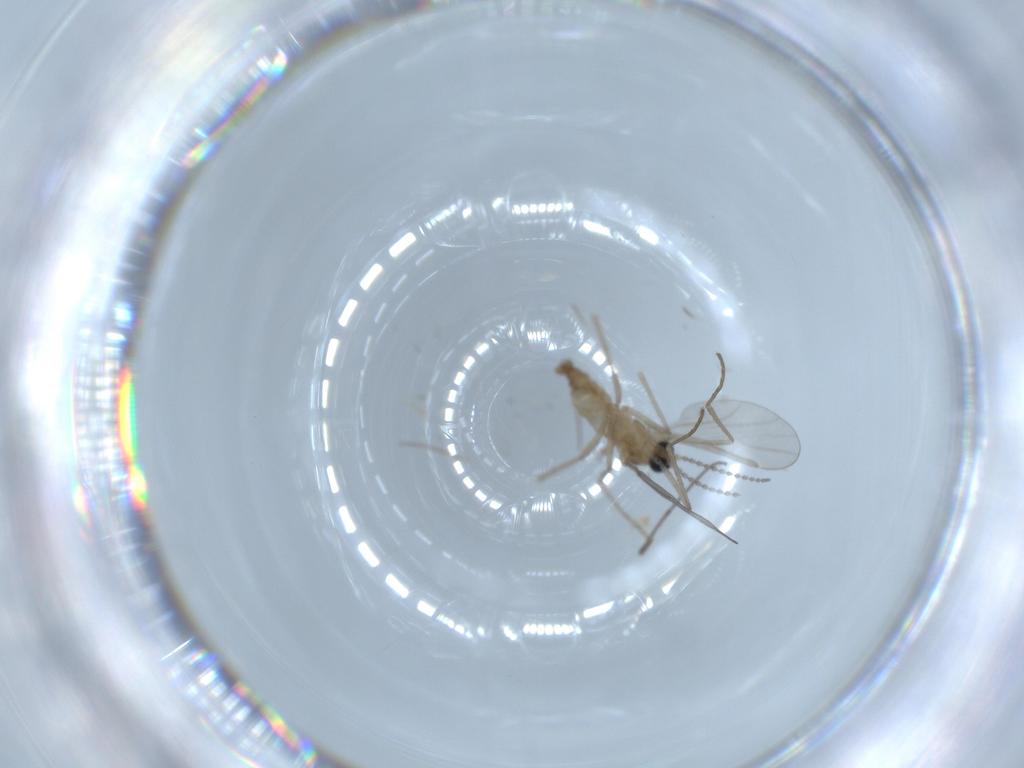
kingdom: Animalia
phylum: Arthropoda
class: Insecta
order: Diptera
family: Cecidomyiidae
